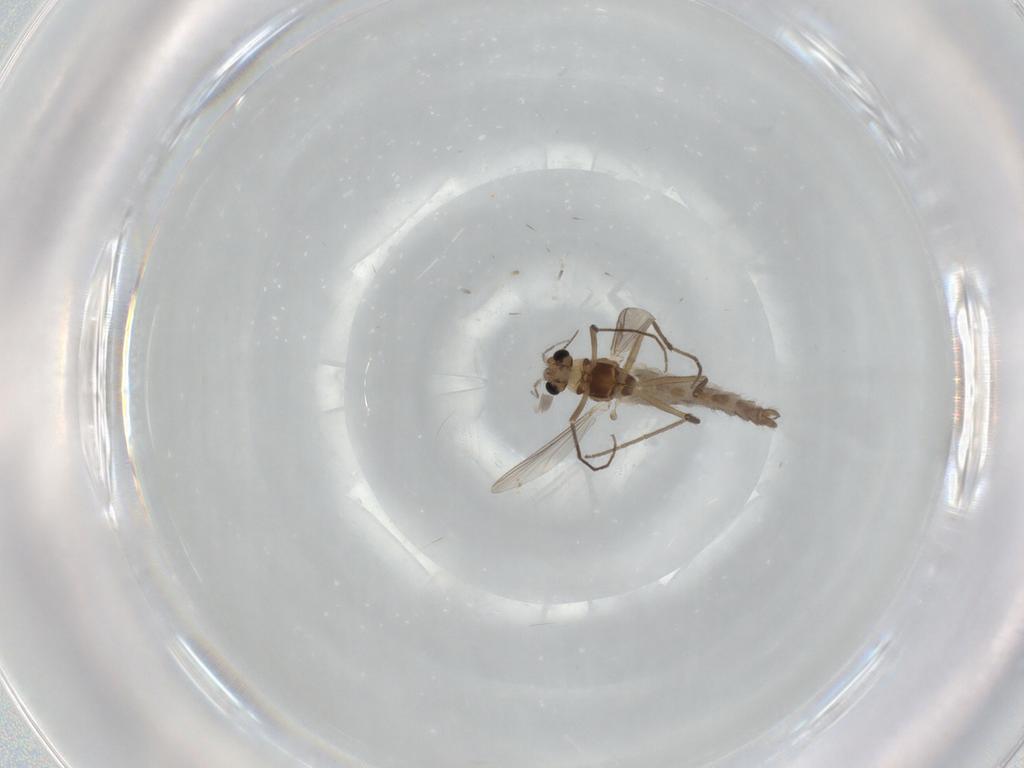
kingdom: Animalia
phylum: Arthropoda
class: Insecta
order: Diptera
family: Chironomidae
